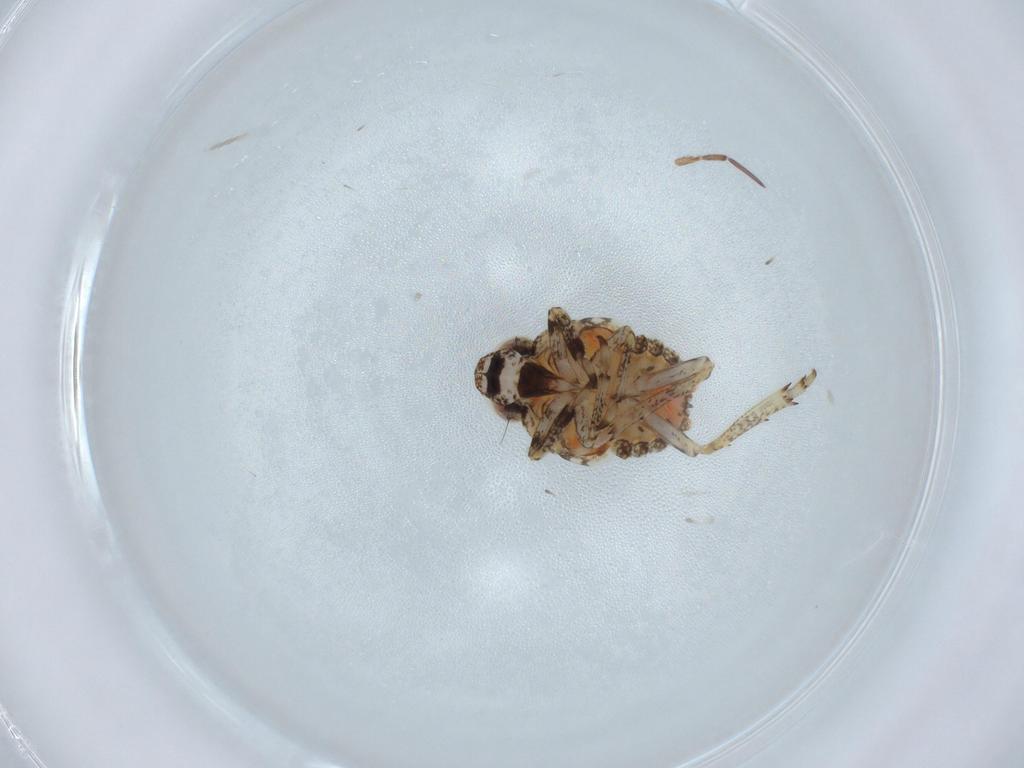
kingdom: Animalia
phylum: Arthropoda
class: Insecta
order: Hemiptera
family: Issidae
